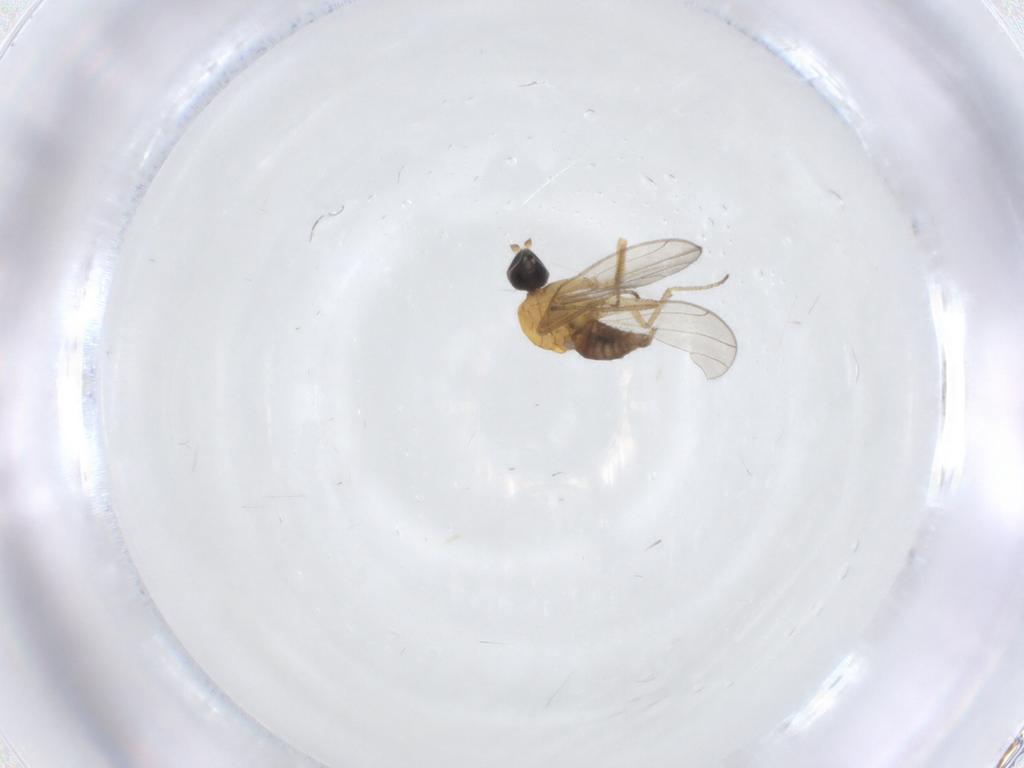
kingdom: Animalia
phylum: Arthropoda
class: Insecta
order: Diptera
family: Empididae
